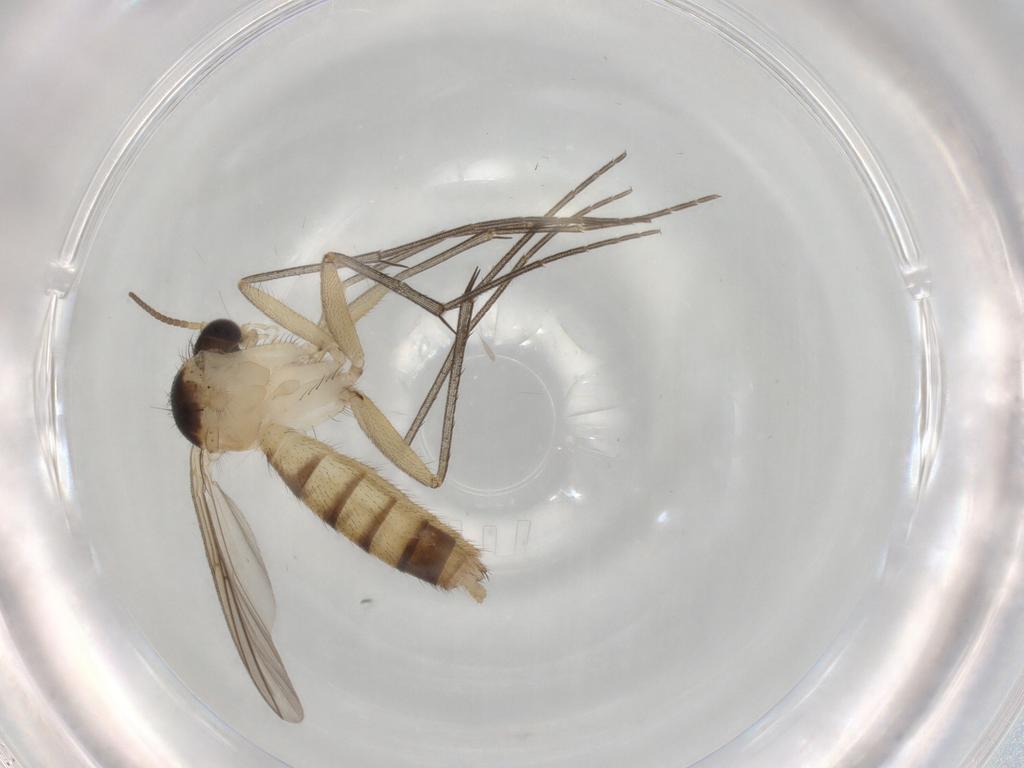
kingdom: Animalia
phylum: Arthropoda
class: Insecta
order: Diptera
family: Mycetophilidae
